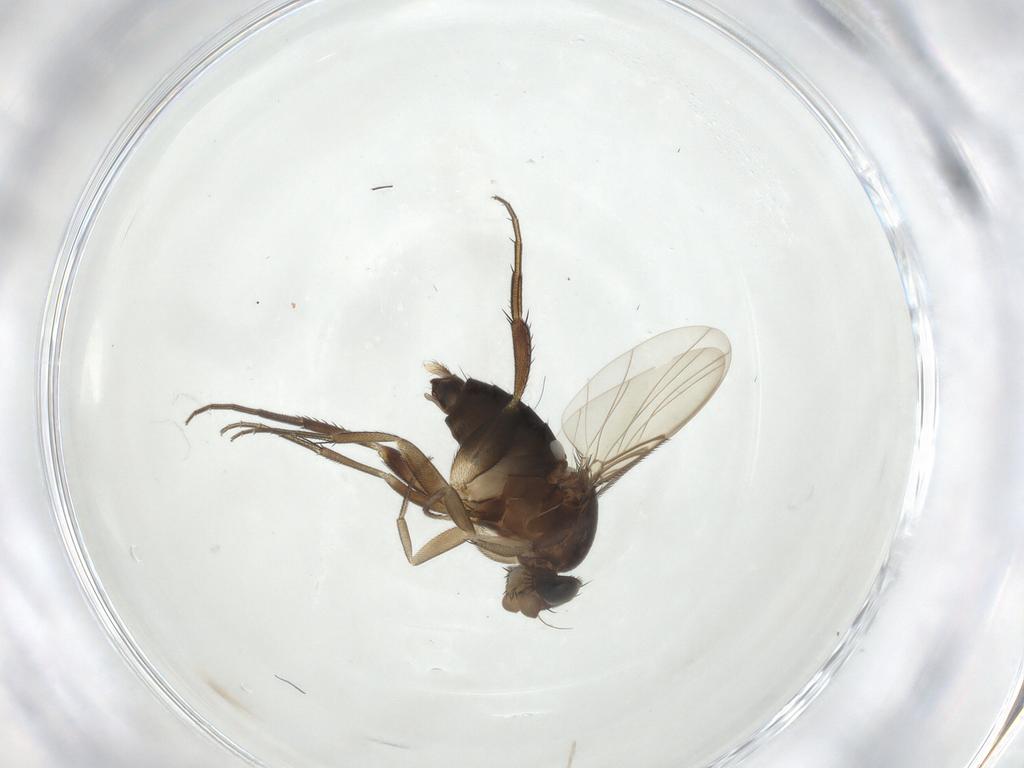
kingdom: Animalia
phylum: Arthropoda
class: Insecta
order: Diptera
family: Phoridae
